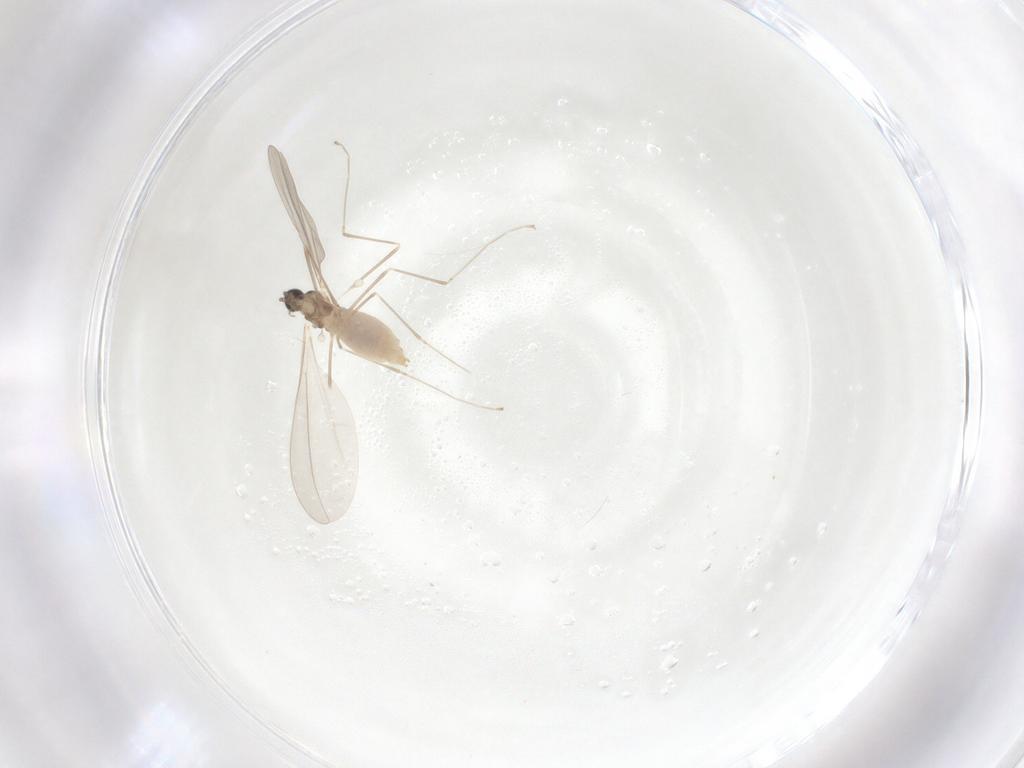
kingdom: Animalia
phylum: Arthropoda
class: Insecta
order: Diptera
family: Cecidomyiidae
